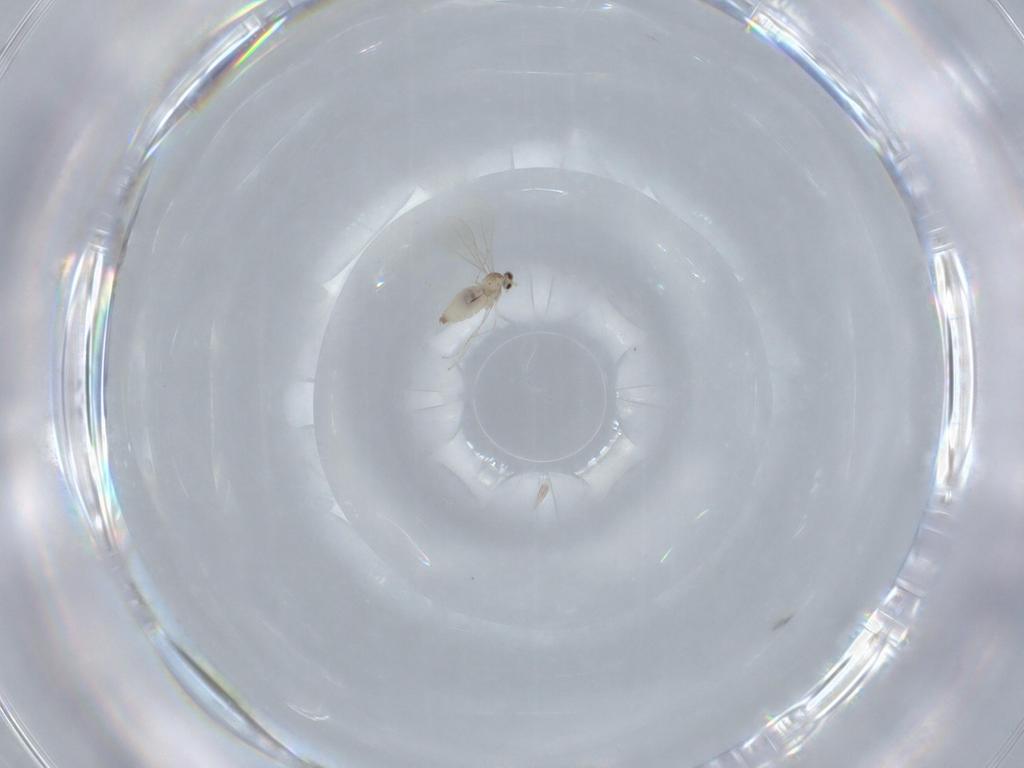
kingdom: Animalia
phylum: Arthropoda
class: Insecta
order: Diptera
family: Cecidomyiidae
